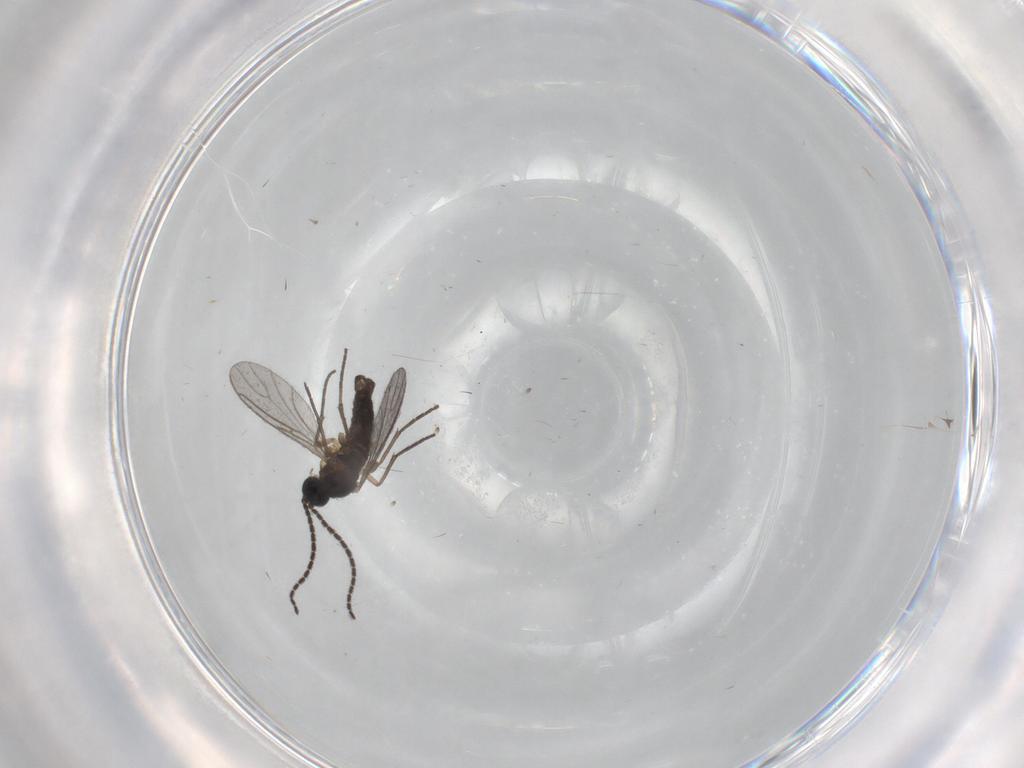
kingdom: Animalia
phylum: Arthropoda
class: Insecta
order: Diptera
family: Sciaridae
